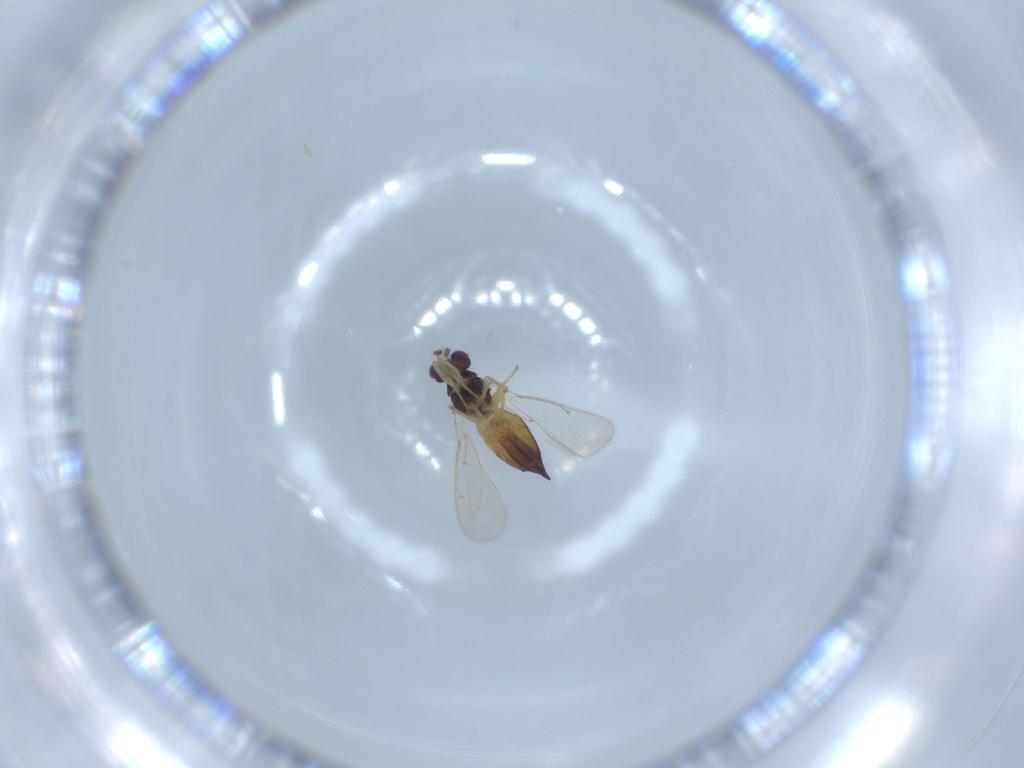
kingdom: Animalia
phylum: Arthropoda
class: Insecta
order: Hymenoptera
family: Eulophidae
